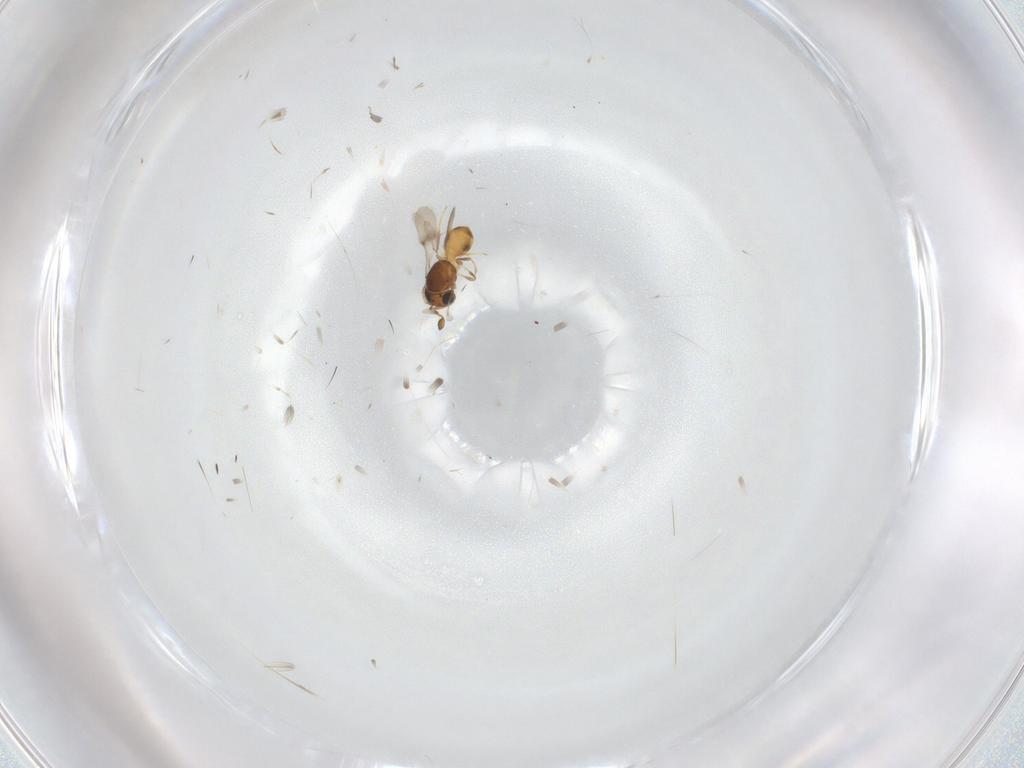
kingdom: Animalia
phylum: Arthropoda
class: Insecta
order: Hymenoptera
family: Scelionidae
